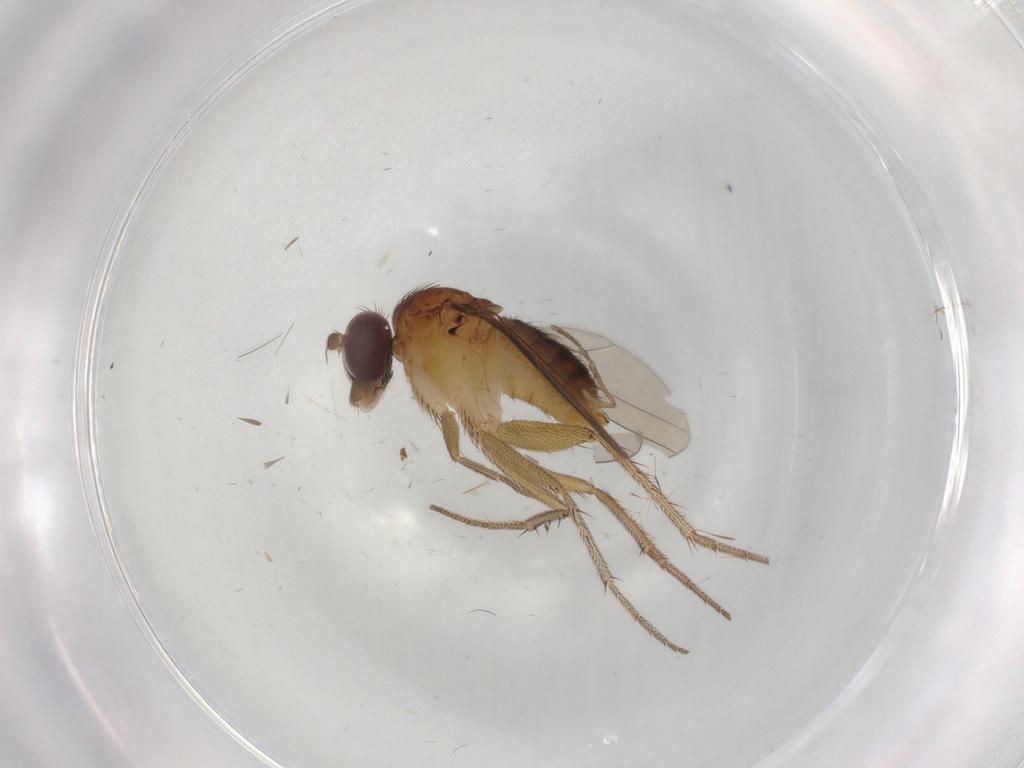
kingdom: Animalia
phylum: Arthropoda
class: Insecta
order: Diptera
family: Dolichopodidae
